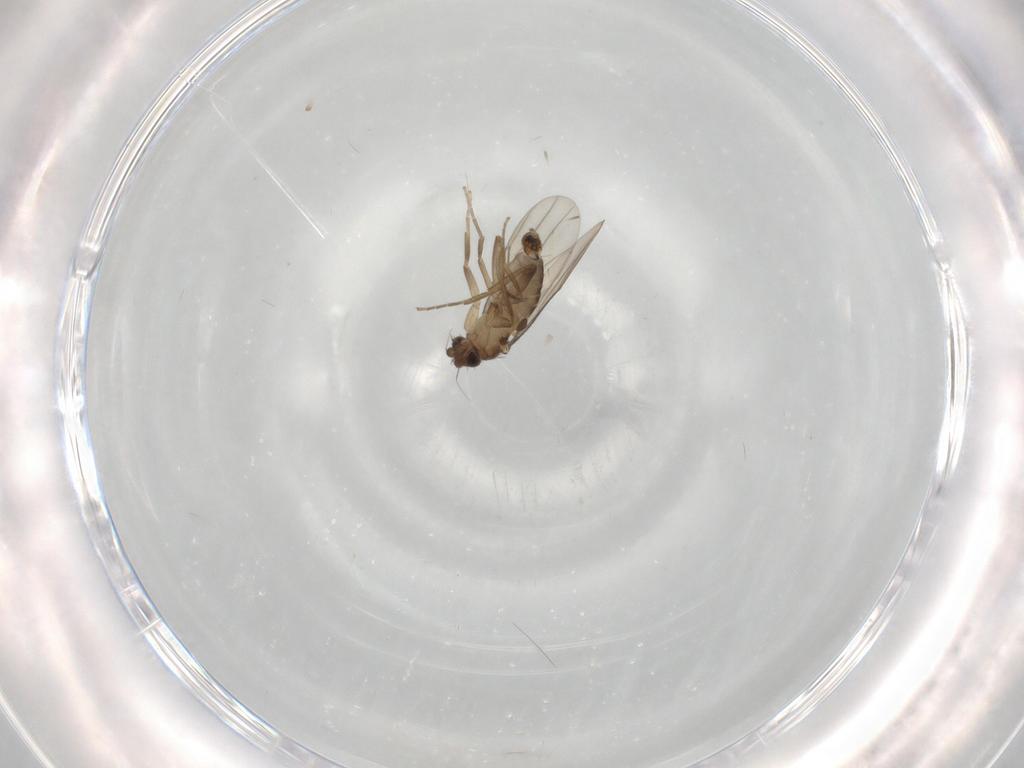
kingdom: Animalia
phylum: Arthropoda
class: Insecta
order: Diptera
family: Phoridae
